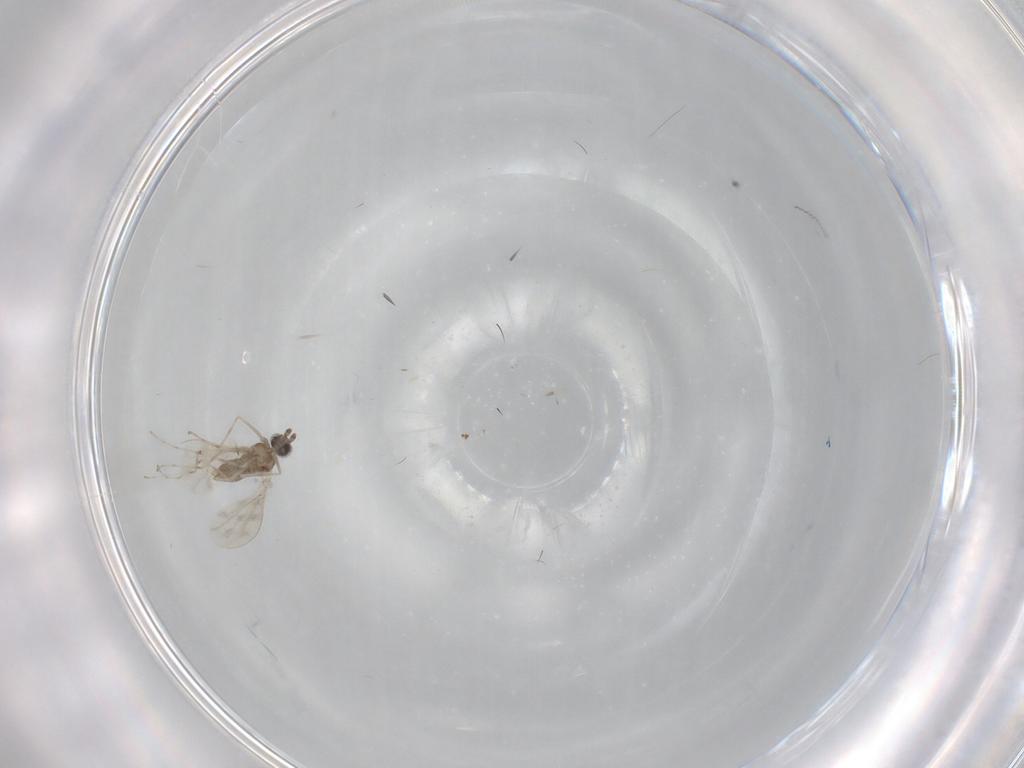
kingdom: Animalia
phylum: Arthropoda
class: Insecta
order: Diptera
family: Cecidomyiidae
